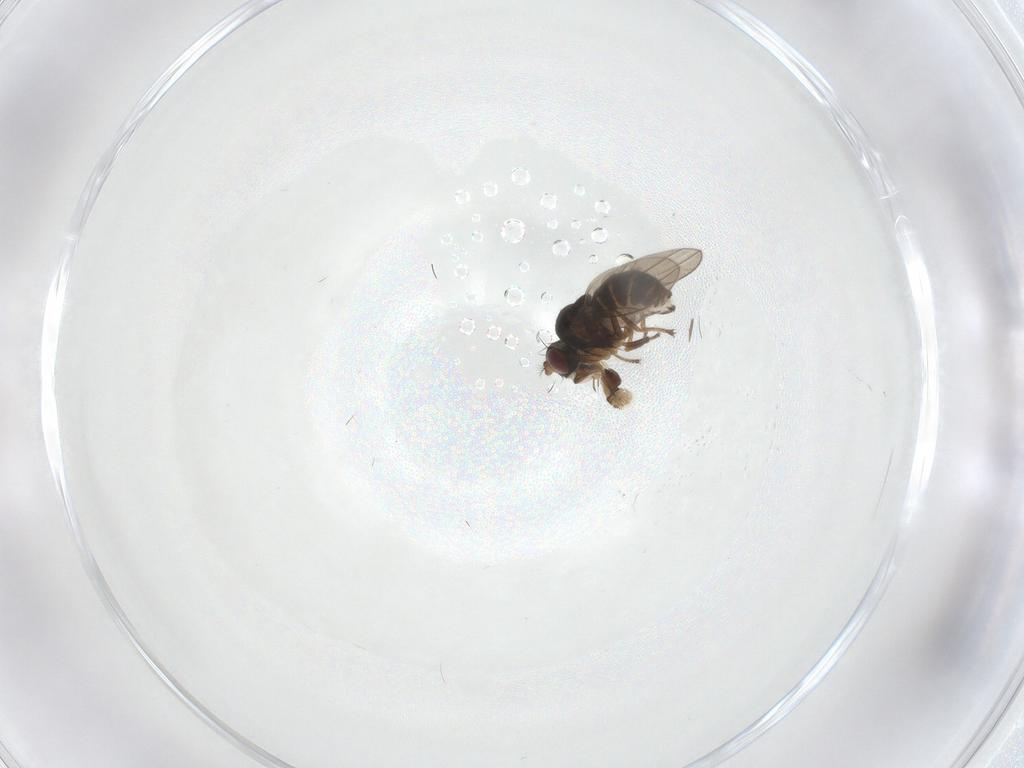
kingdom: Animalia
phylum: Arthropoda
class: Insecta
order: Diptera
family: Ephydridae
